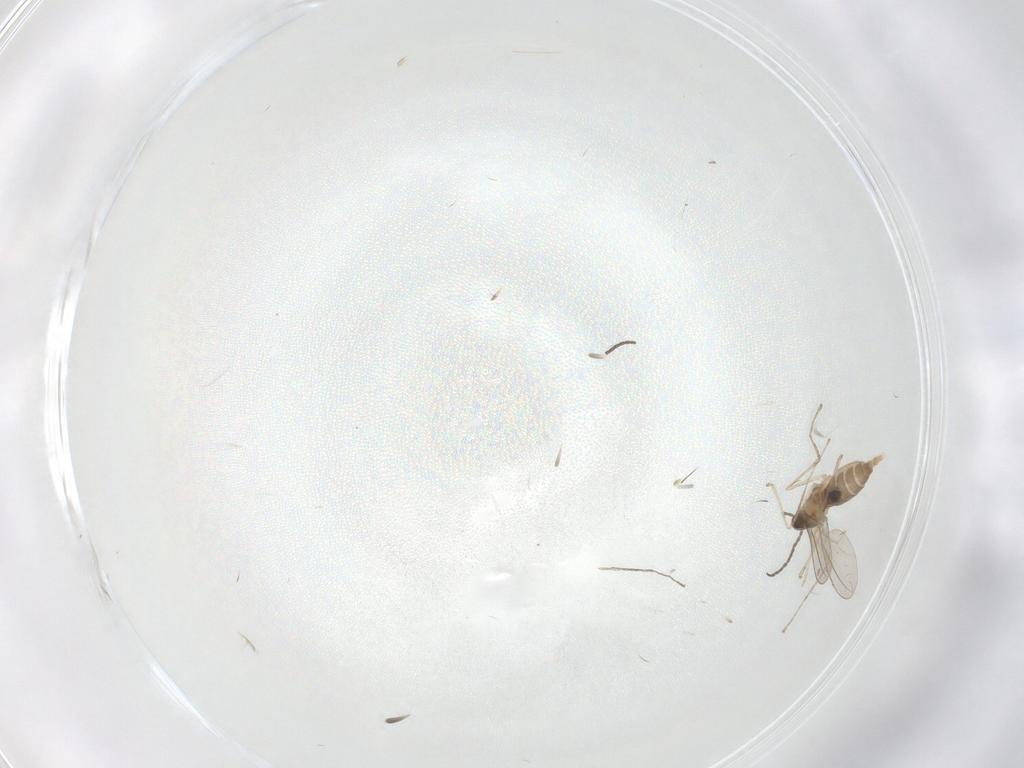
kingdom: Animalia
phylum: Arthropoda
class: Insecta
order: Diptera
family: Cecidomyiidae
